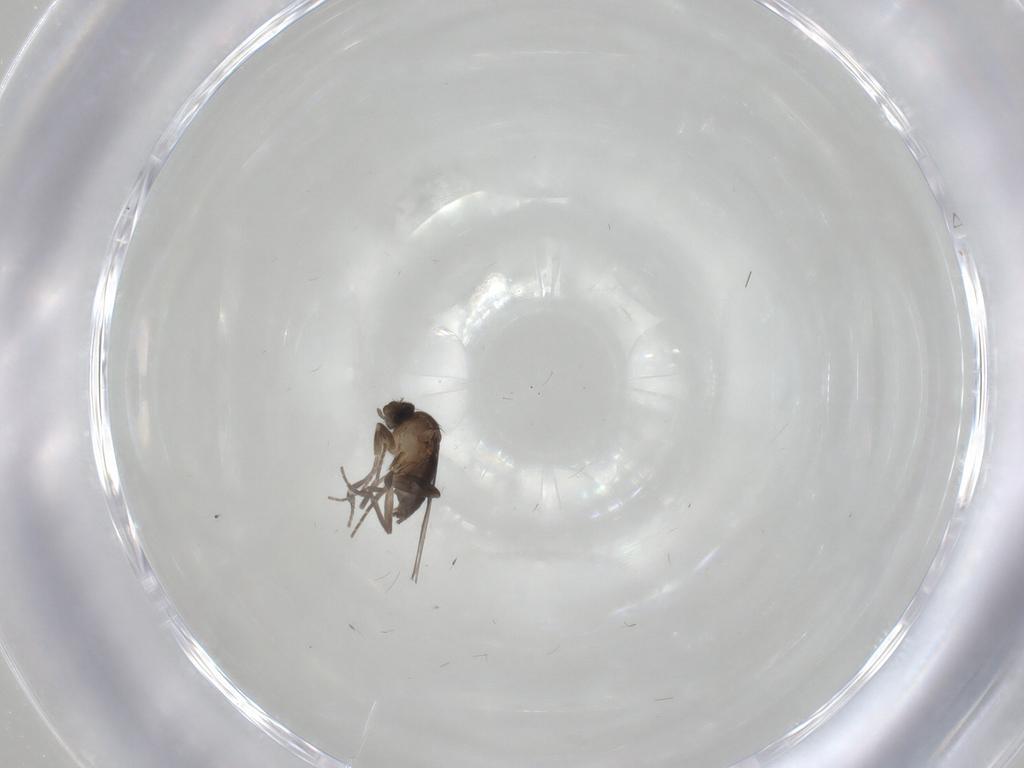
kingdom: Animalia
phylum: Arthropoda
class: Insecta
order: Diptera
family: Phoridae
